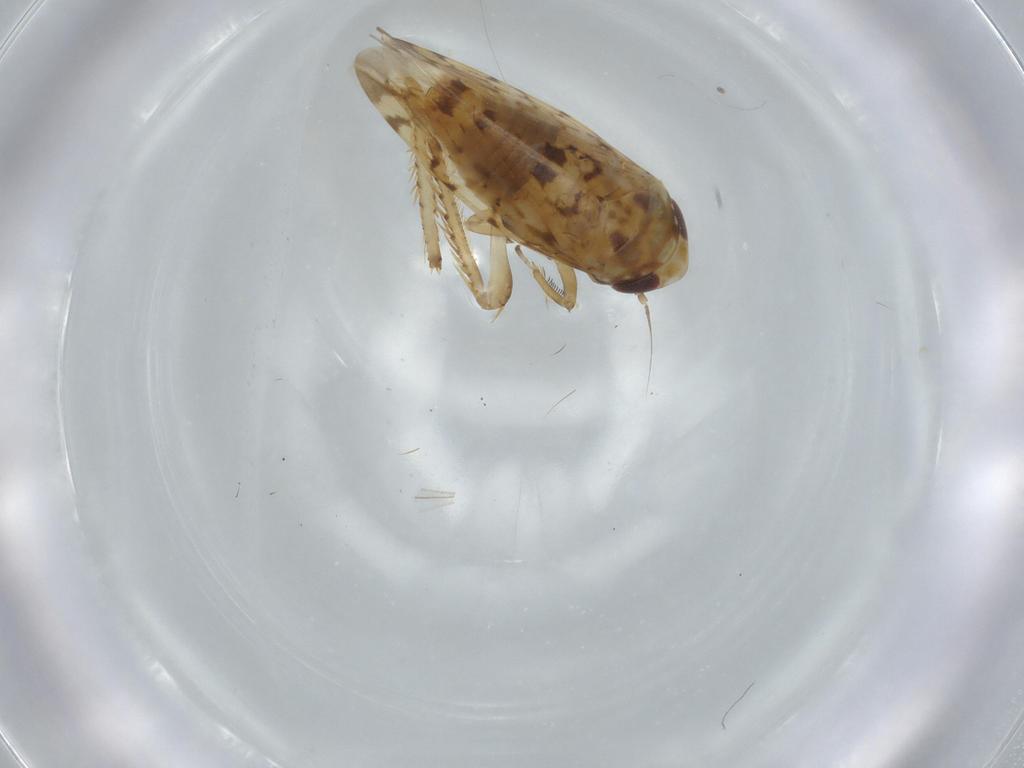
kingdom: Animalia
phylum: Arthropoda
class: Insecta
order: Hemiptera
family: Cicadellidae
